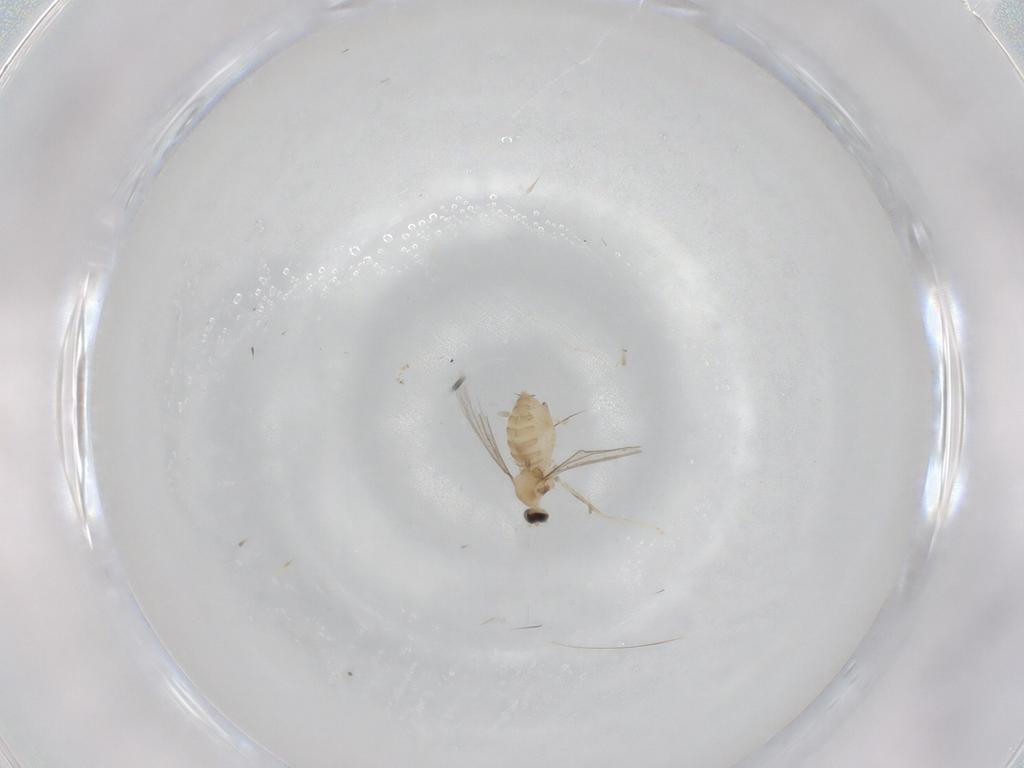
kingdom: Animalia
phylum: Arthropoda
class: Insecta
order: Diptera
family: Cecidomyiidae
